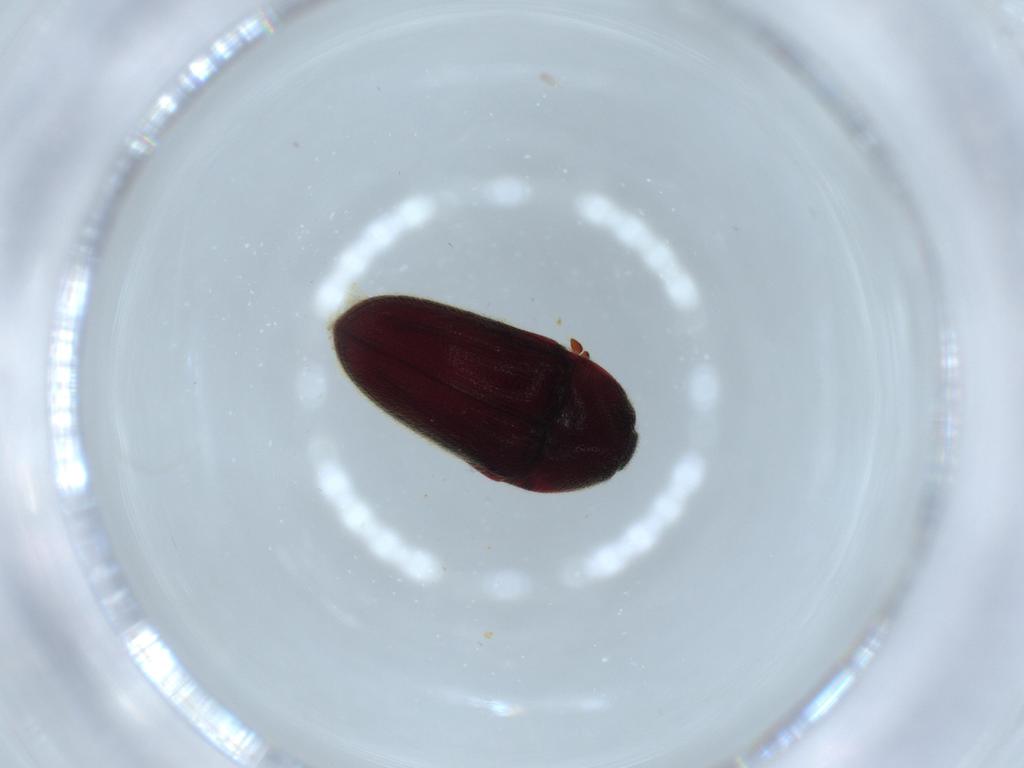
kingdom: Animalia
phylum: Arthropoda
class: Insecta
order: Coleoptera
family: Throscidae
